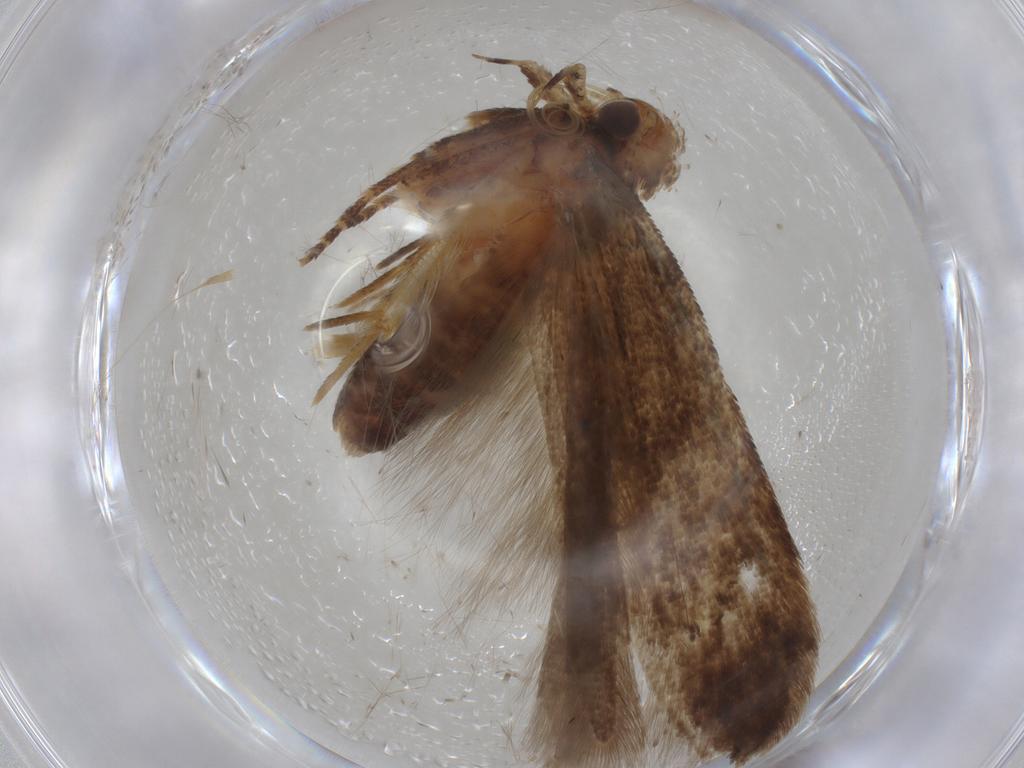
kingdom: Animalia
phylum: Arthropoda
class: Insecta
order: Lepidoptera
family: Gelechiidae
